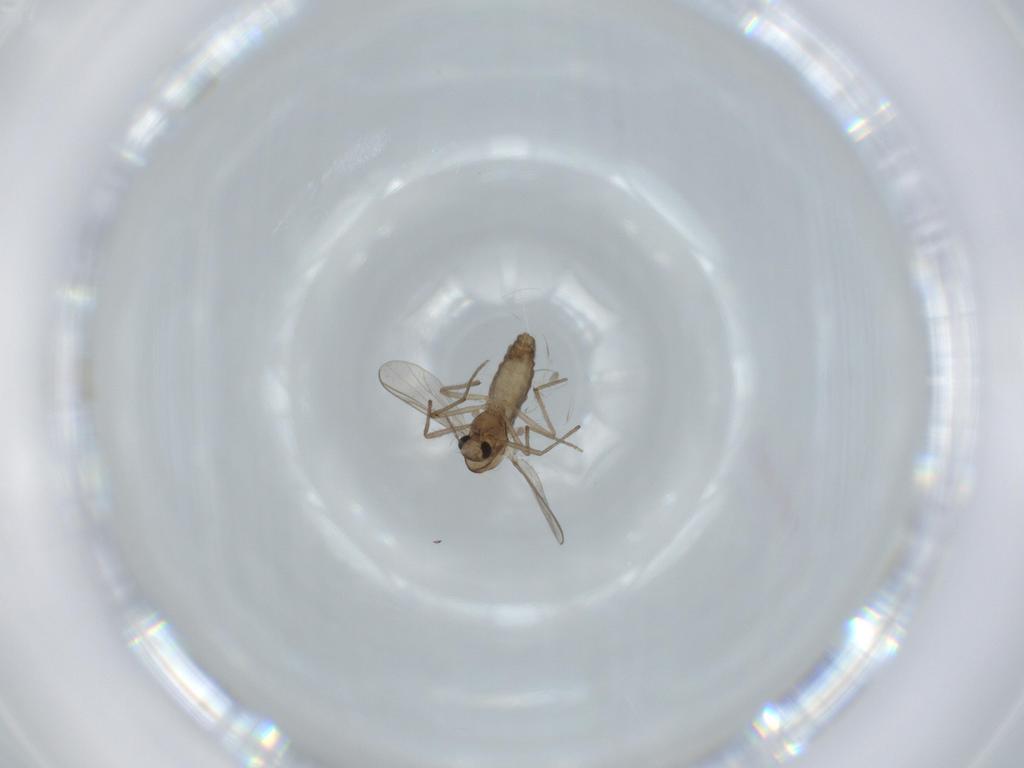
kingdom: Animalia
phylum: Arthropoda
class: Insecta
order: Diptera
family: Chironomidae
